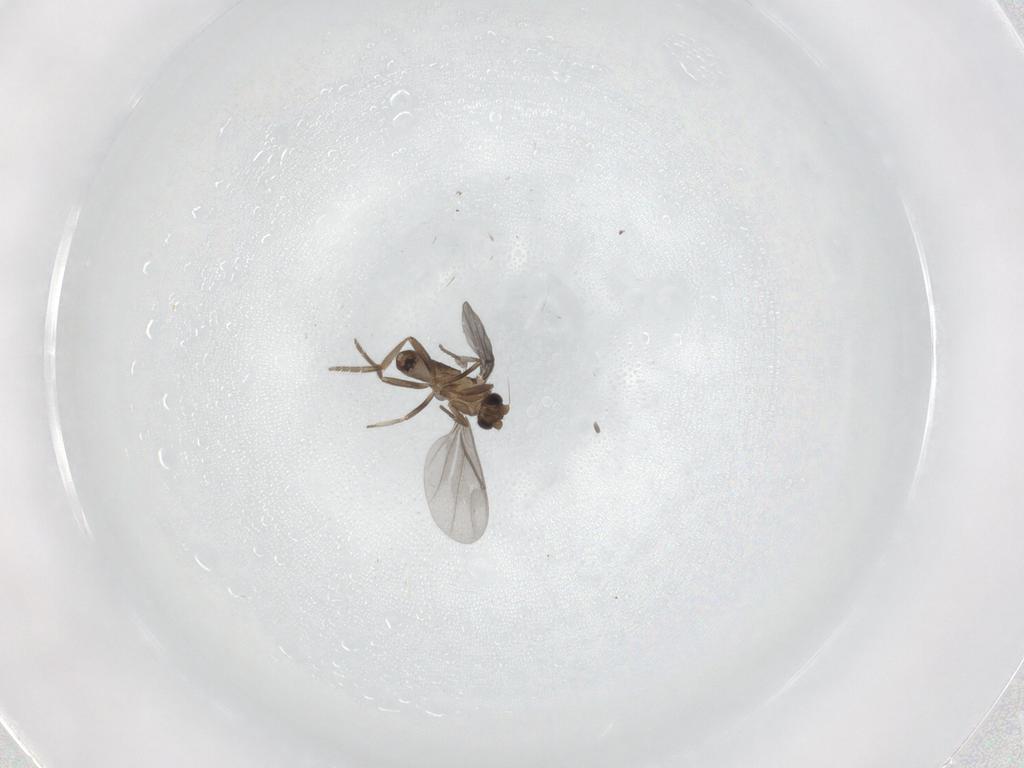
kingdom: Animalia
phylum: Arthropoda
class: Insecta
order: Diptera
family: Phoridae
